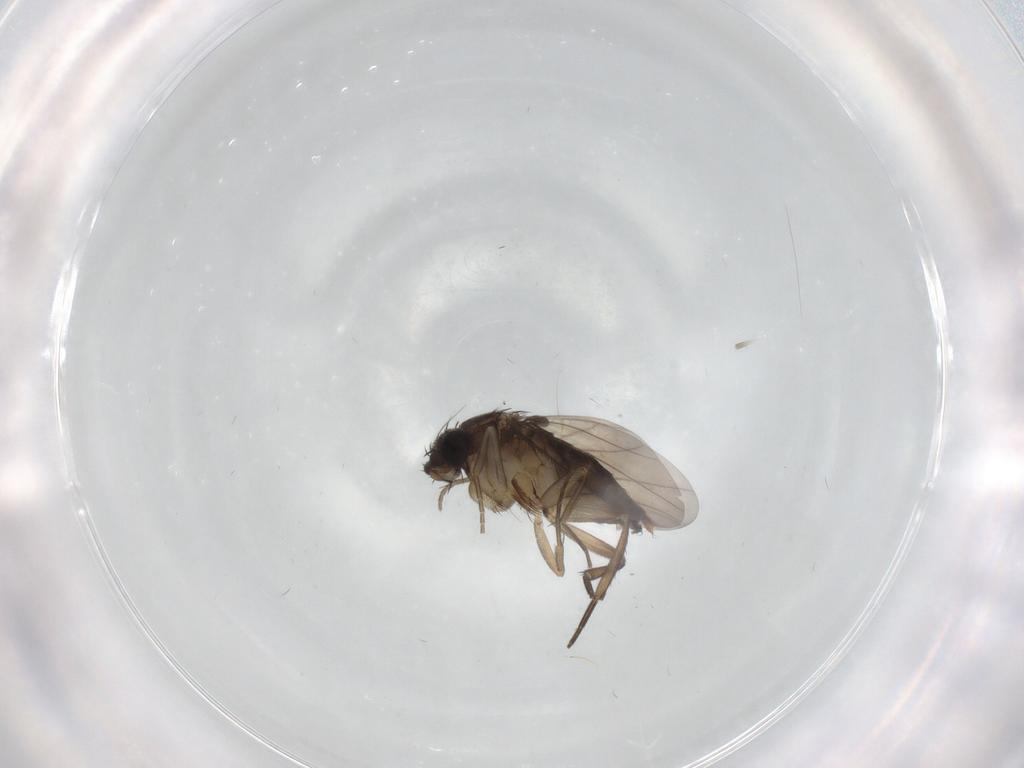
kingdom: Animalia
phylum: Arthropoda
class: Insecta
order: Diptera
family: Phoridae
